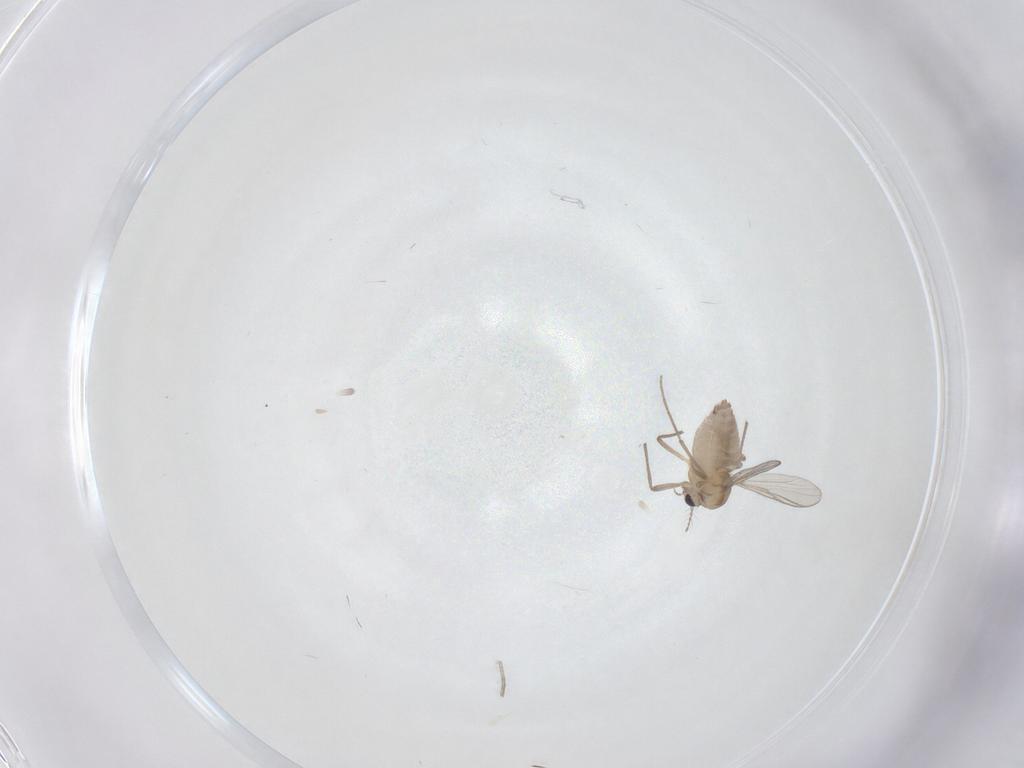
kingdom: Animalia
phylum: Arthropoda
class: Insecta
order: Diptera
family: Chironomidae
